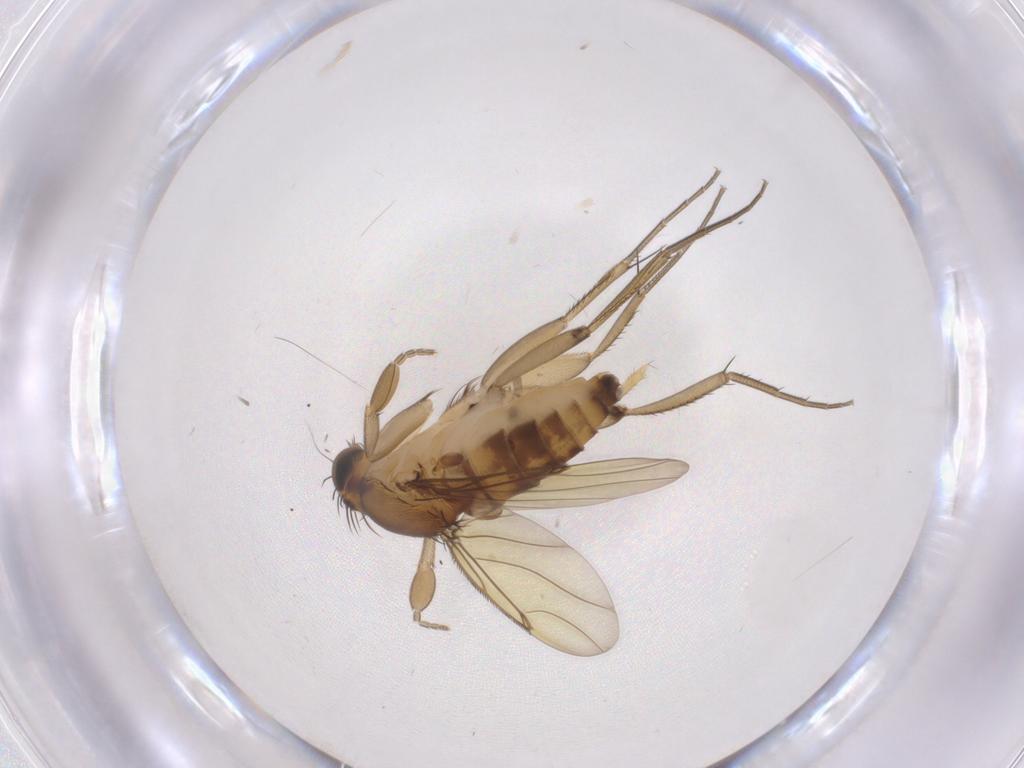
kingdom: Animalia
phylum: Arthropoda
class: Insecta
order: Diptera
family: Phoridae
